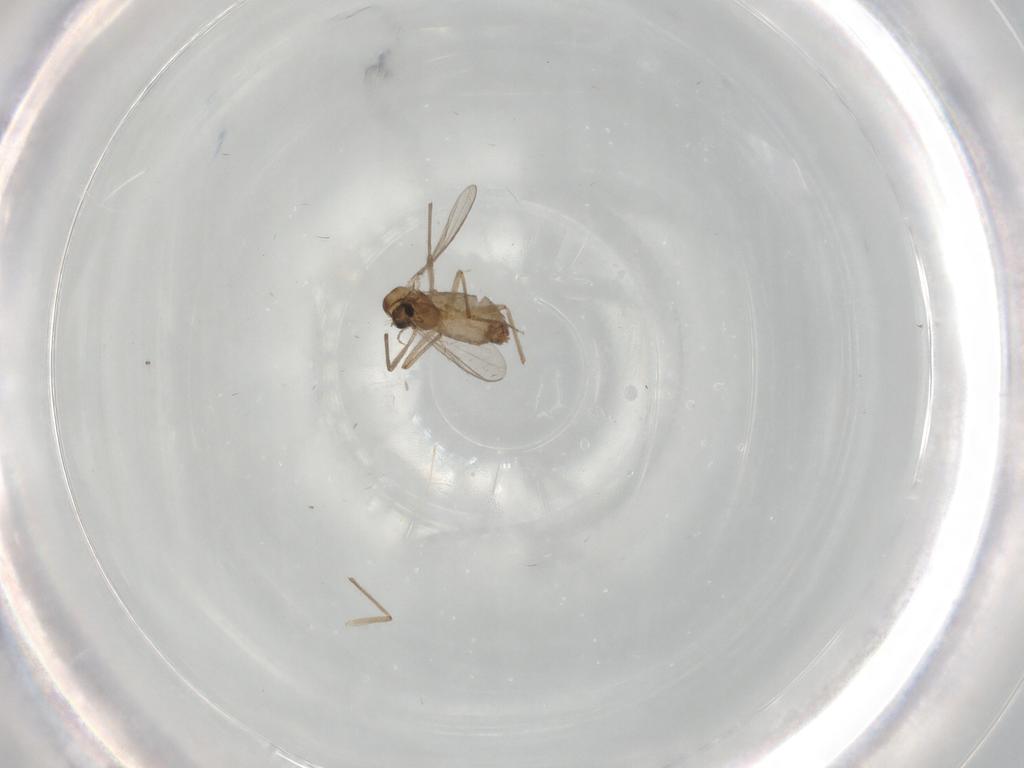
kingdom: Animalia
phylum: Arthropoda
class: Insecta
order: Diptera
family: Chironomidae
